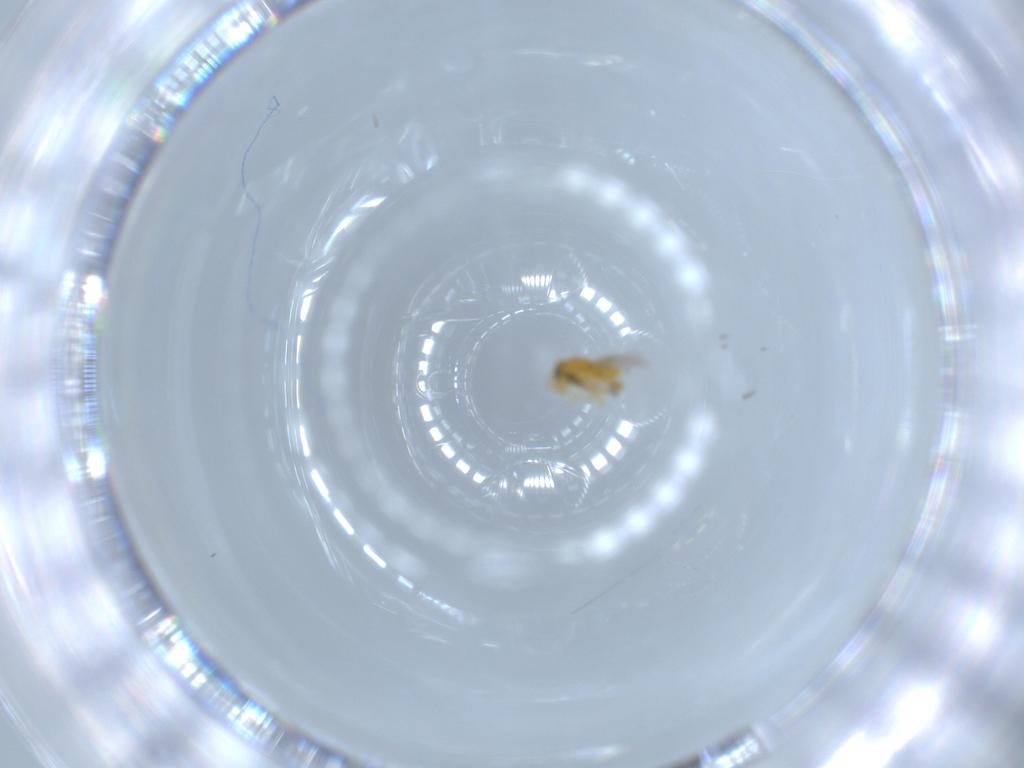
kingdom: Animalia
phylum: Arthropoda
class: Insecta
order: Hymenoptera
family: Formicidae
